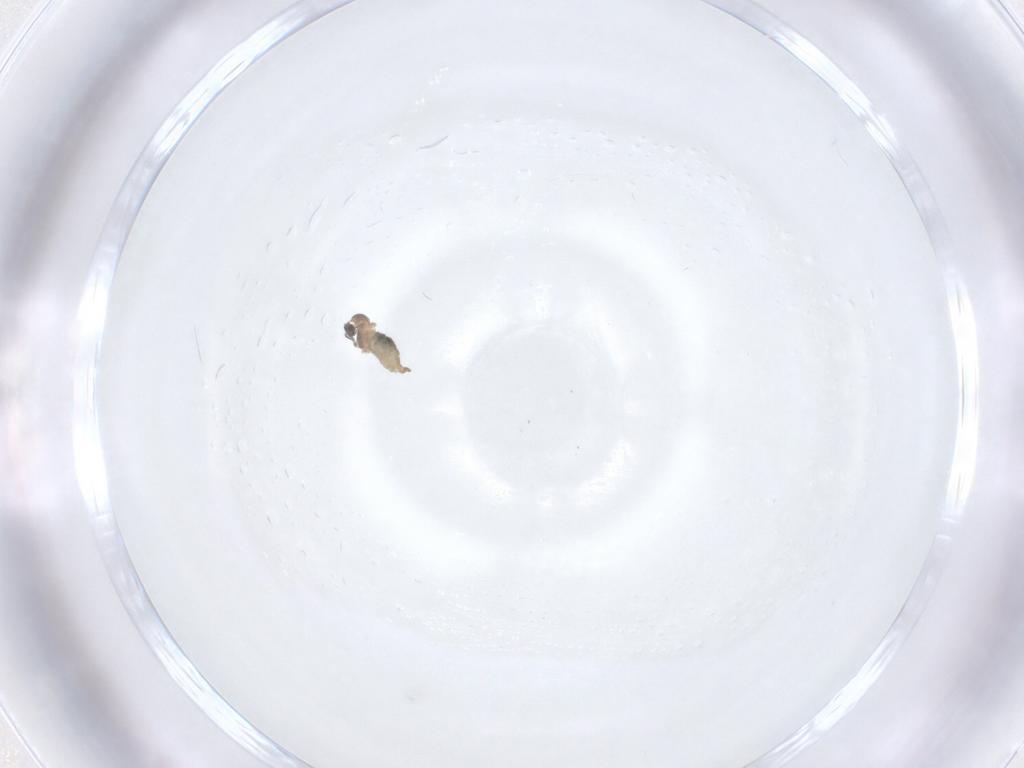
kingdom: Animalia
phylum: Arthropoda
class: Insecta
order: Diptera
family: Cecidomyiidae
